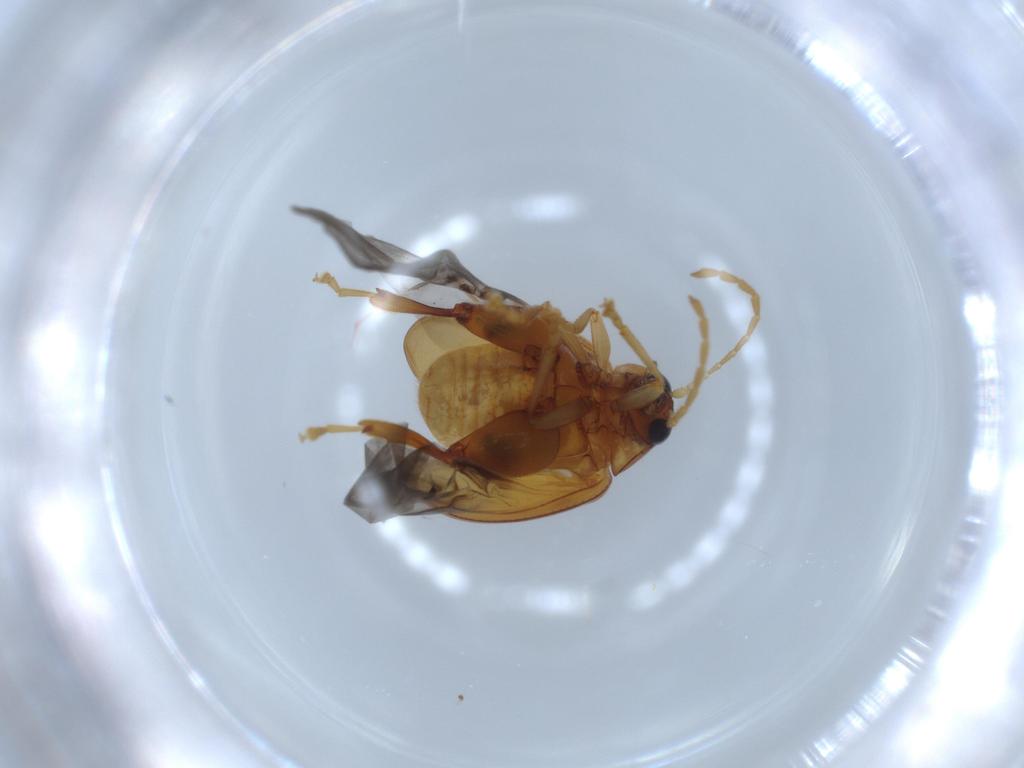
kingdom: Animalia
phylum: Arthropoda
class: Insecta
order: Coleoptera
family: Chrysomelidae
